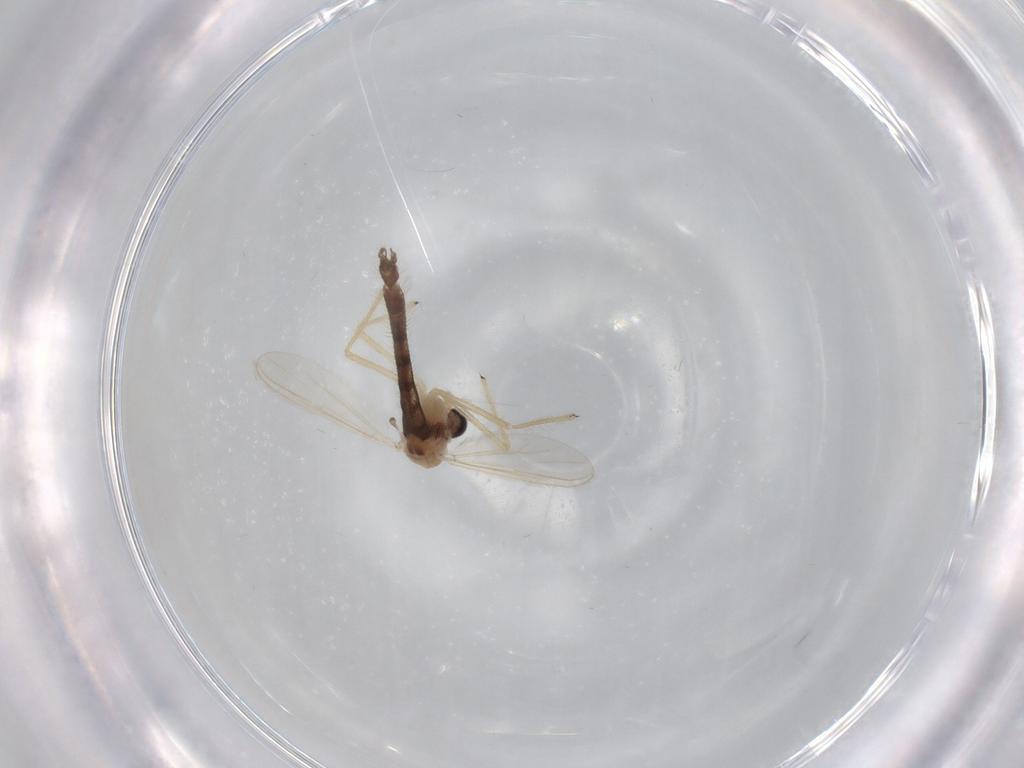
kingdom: Animalia
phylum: Arthropoda
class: Insecta
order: Diptera
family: Chironomidae
